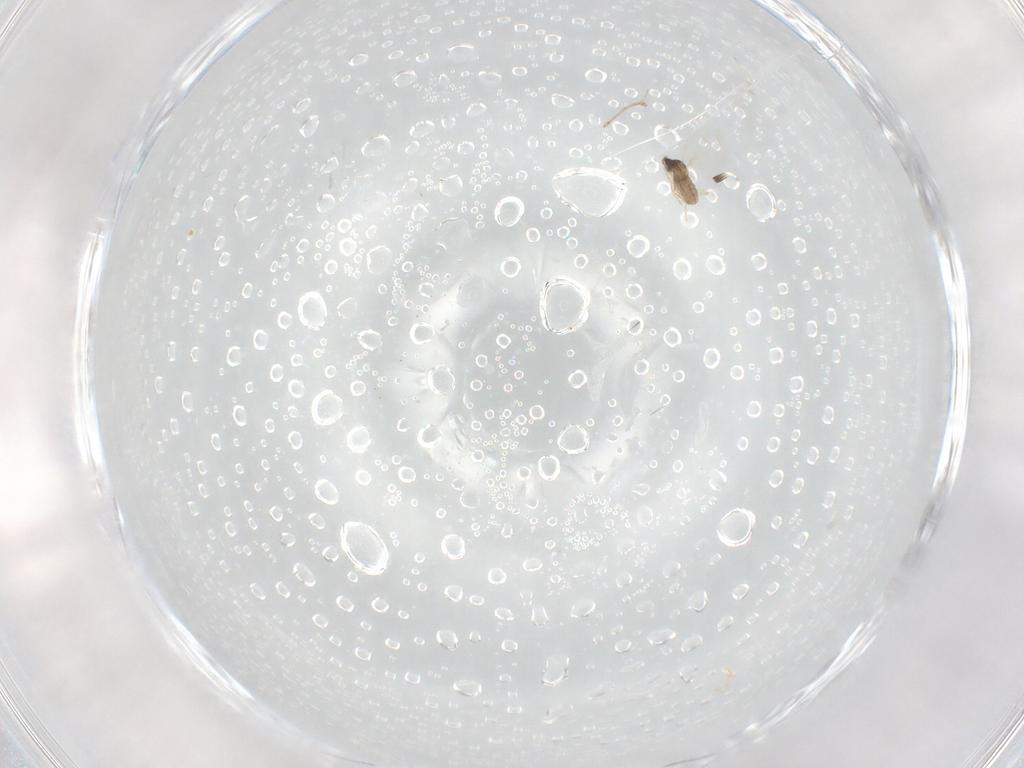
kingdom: Animalia
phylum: Arthropoda
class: Insecta
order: Diptera
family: Cecidomyiidae
